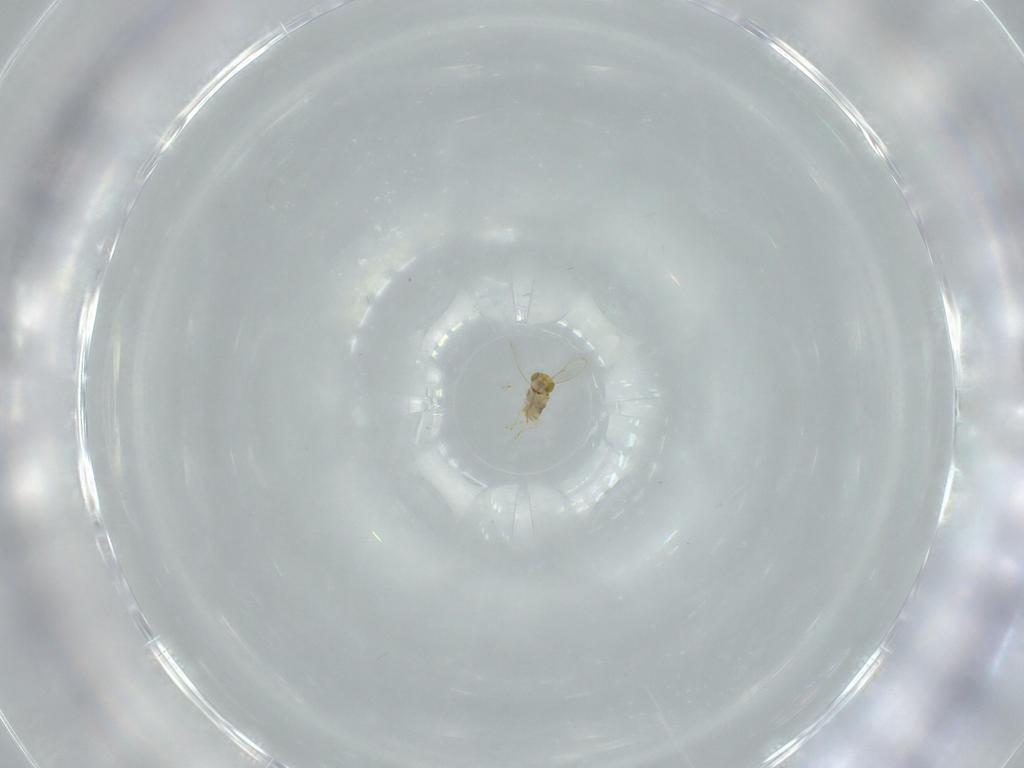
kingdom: Animalia
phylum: Arthropoda
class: Insecta
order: Hymenoptera
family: Aphelinidae
